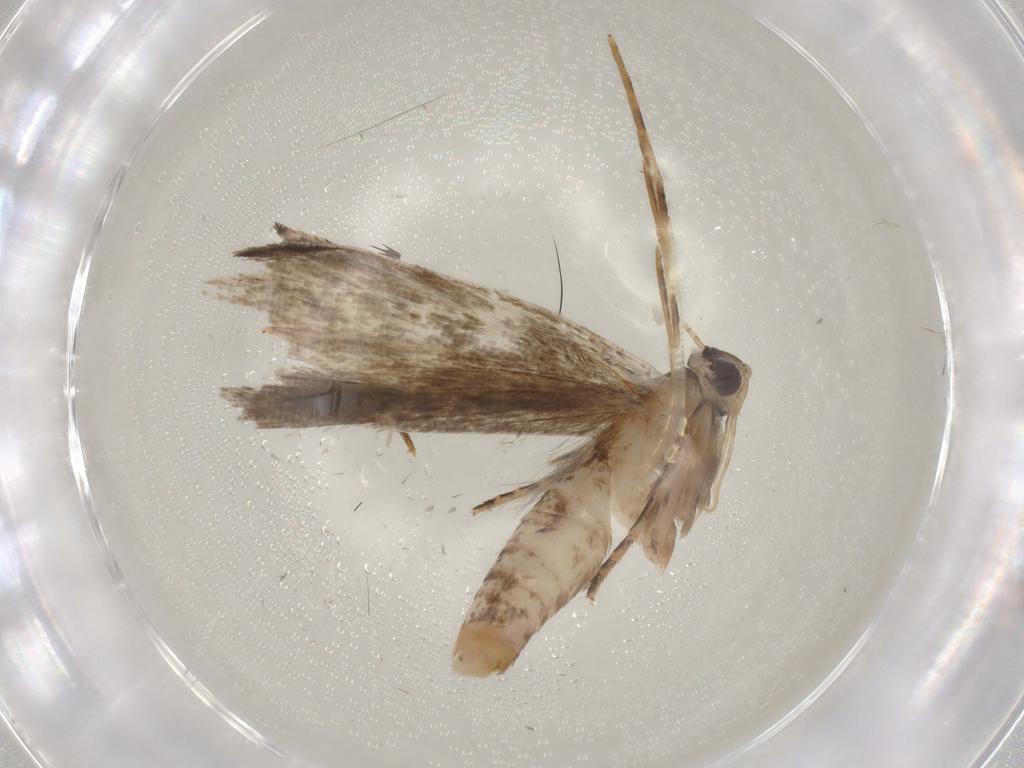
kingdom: Animalia
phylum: Arthropoda
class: Insecta
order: Lepidoptera
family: Gelechiidae
